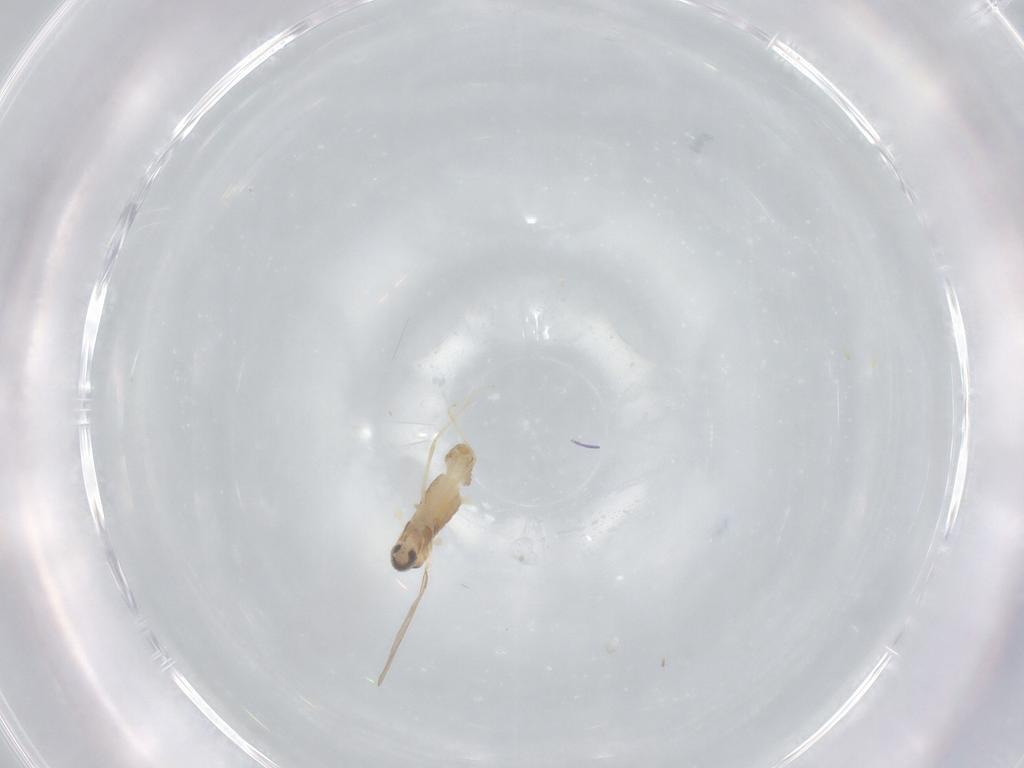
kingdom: Animalia
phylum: Arthropoda
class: Insecta
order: Diptera
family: Cecidomyiidae
